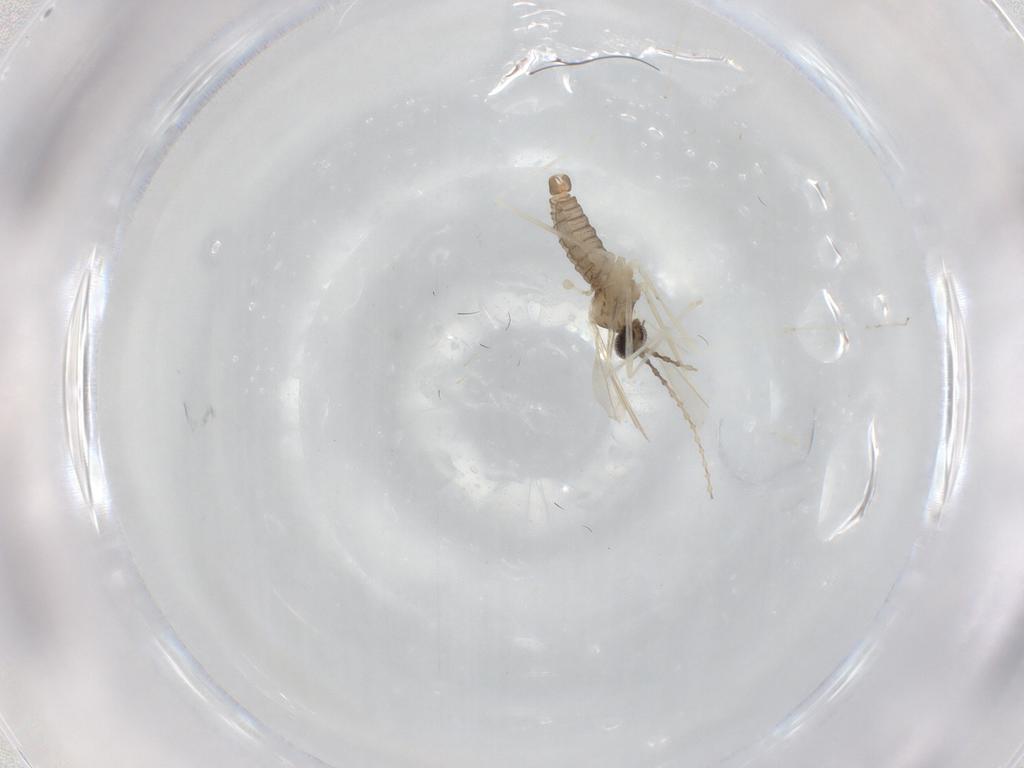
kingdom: Animalia
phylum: Arthropoda
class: Insecta
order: Diptera
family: Cecidomyiidae
